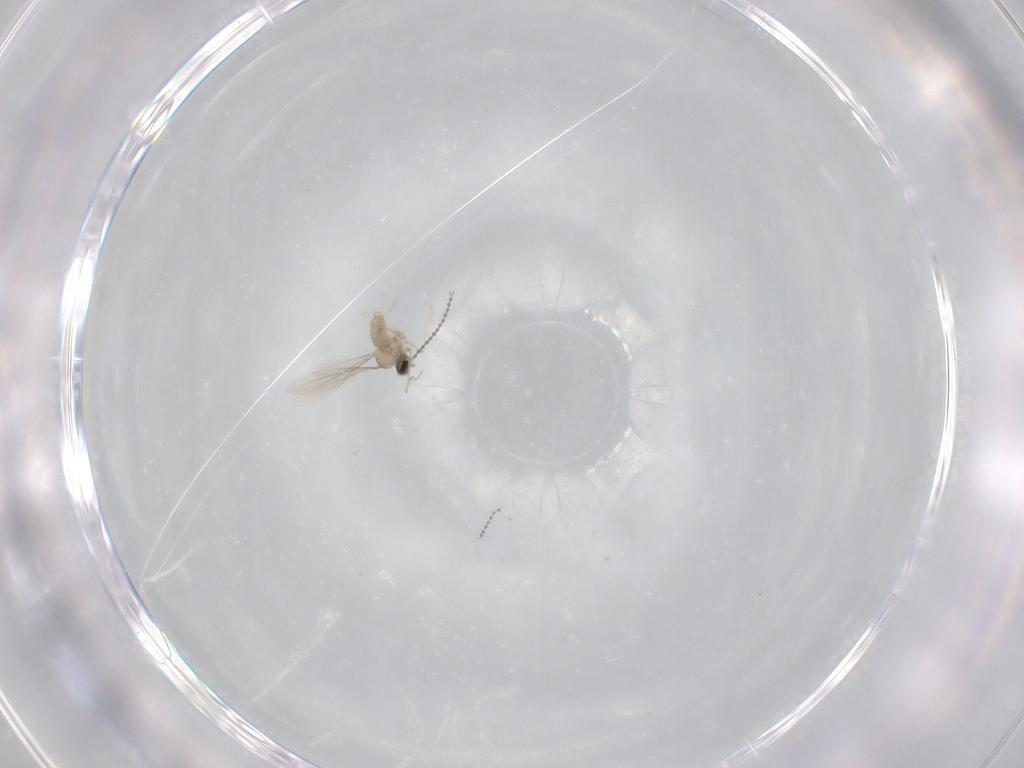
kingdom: Animalia
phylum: Arthropoda
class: Insecta
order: Diptera
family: Cecidomyiidae
